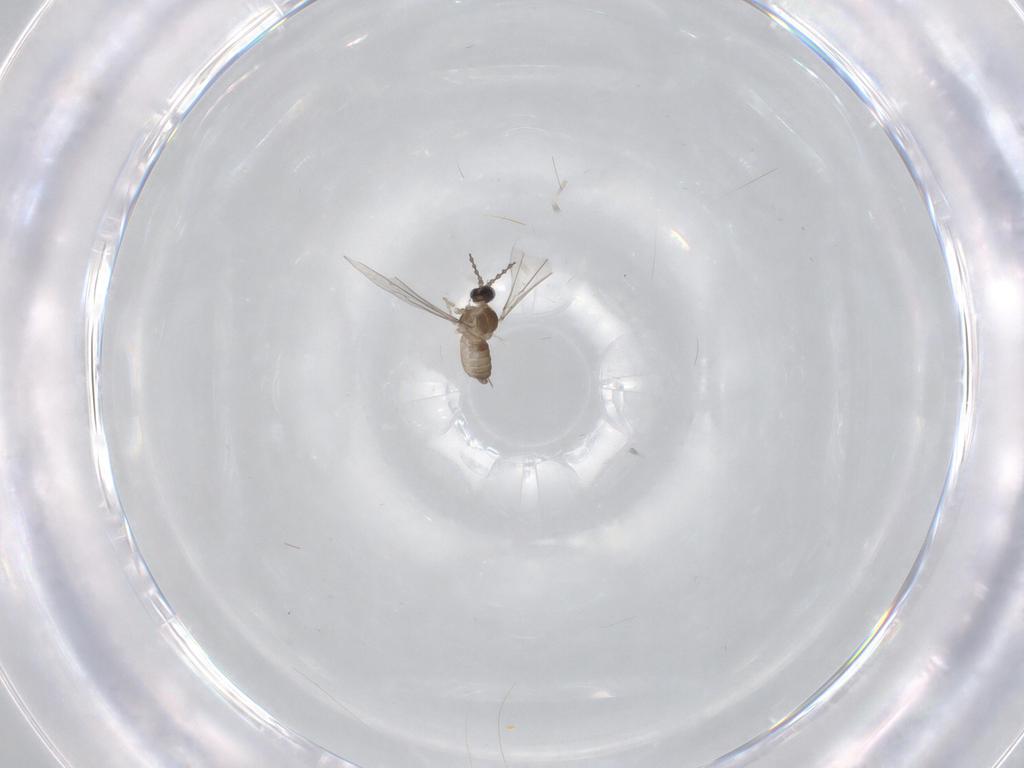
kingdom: Animalia
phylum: Arthropoda
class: Insecta
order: Diptera
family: Cecidomyiidae
